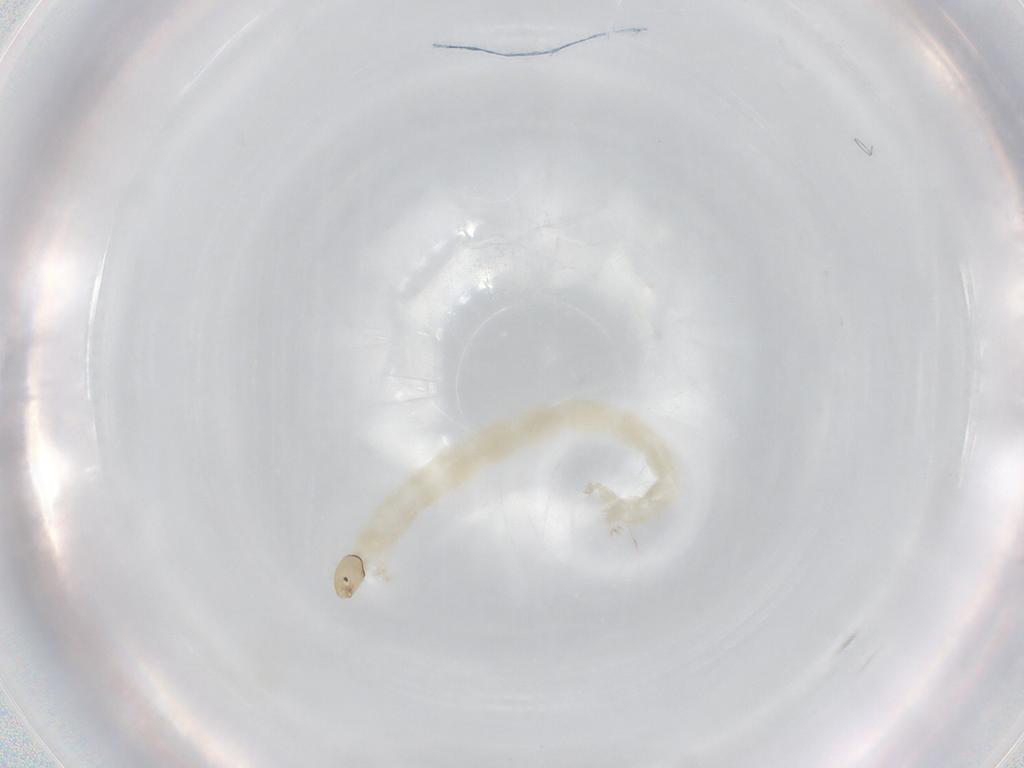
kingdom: Animalia
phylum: Arthropoda
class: Insecta
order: Diptera
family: Chironomidae
